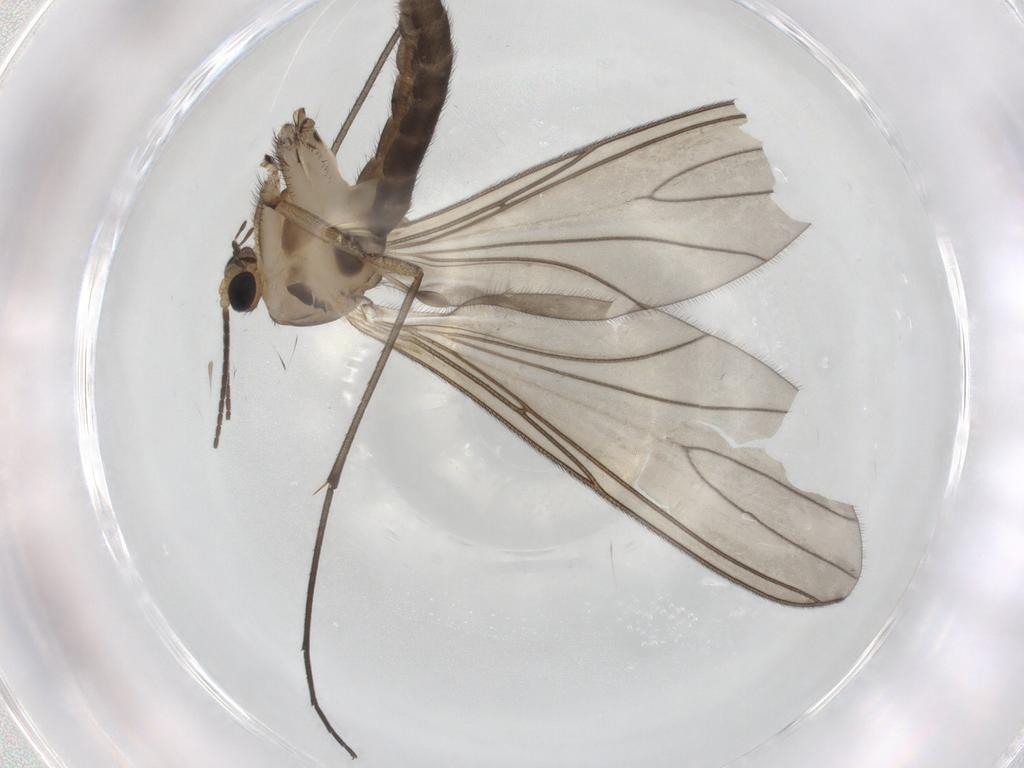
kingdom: Animalia
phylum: Arthropoda
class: Insecta
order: Diptera
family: Sciaridae
